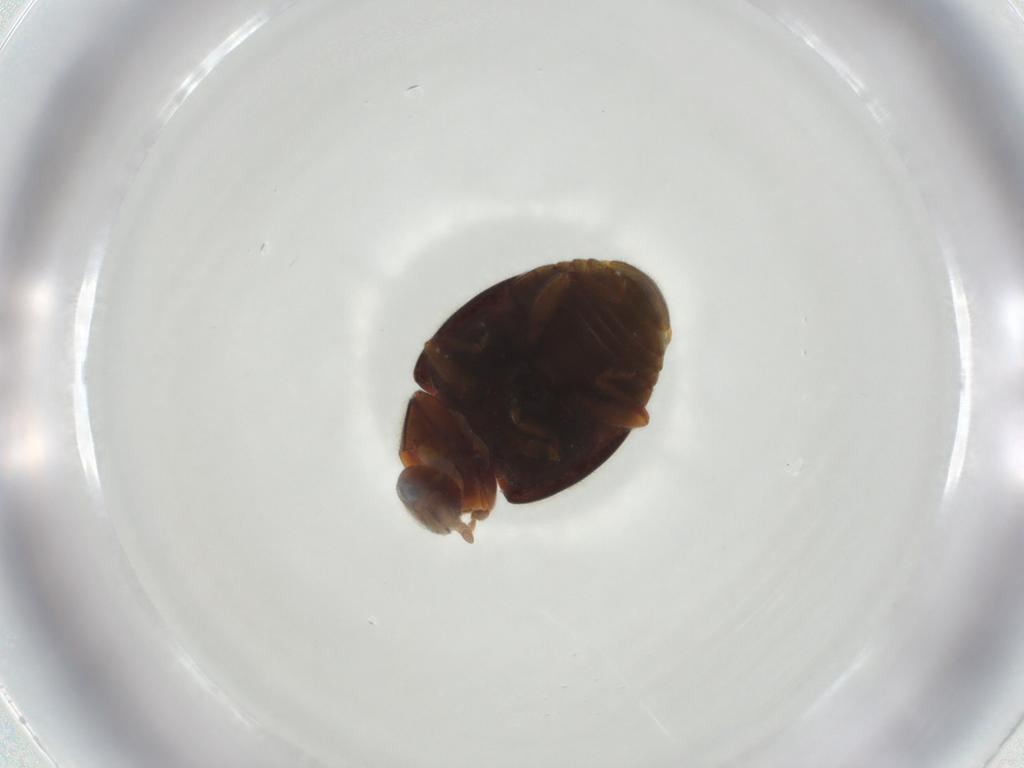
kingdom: Animalia
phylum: Arthropoda
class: Insecta
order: Coleoptera
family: Coccinellidae
